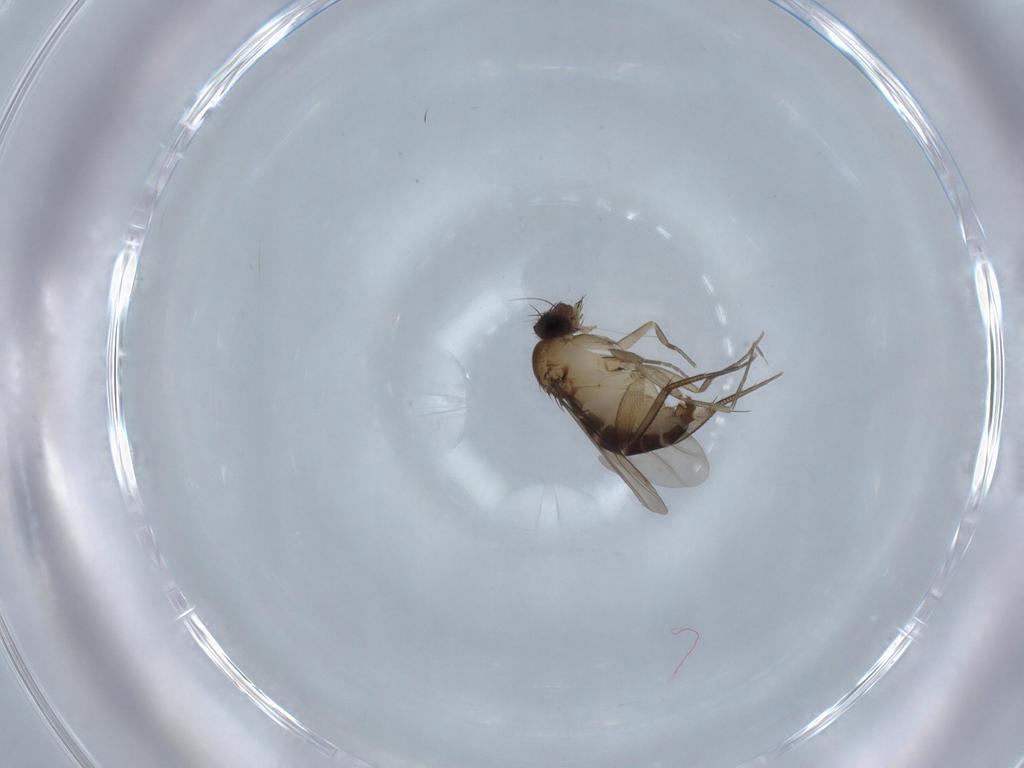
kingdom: Animalia
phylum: Arthropoda
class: Insecta
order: Diptera
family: Phoridae
